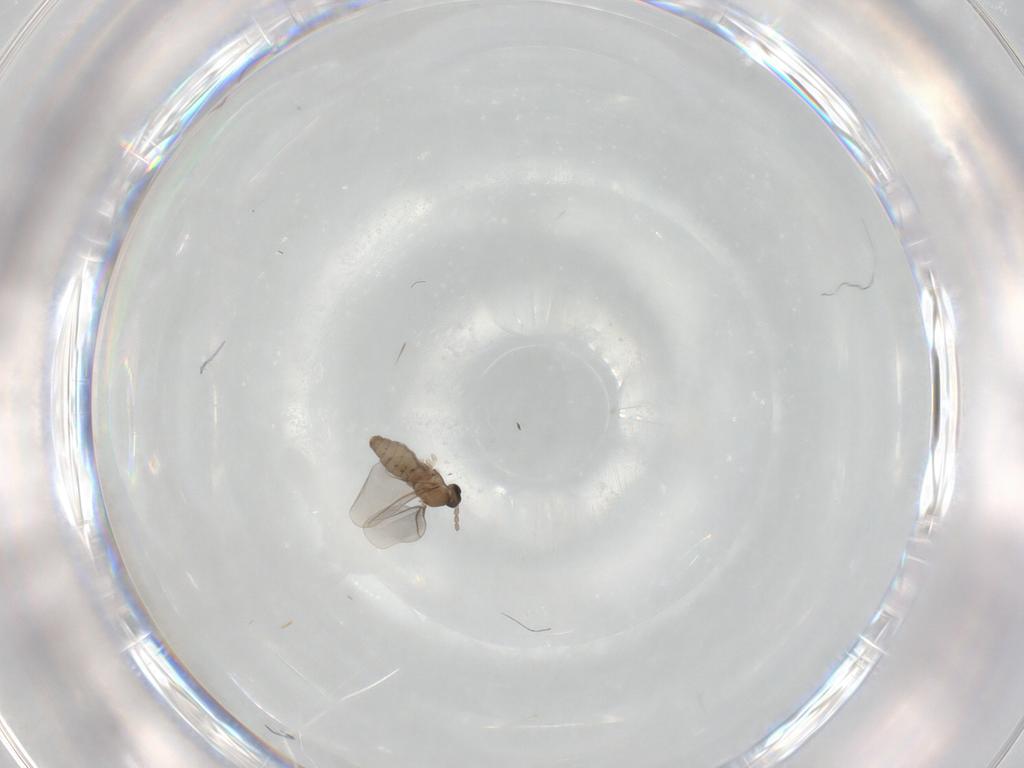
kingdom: Animalia
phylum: Arthropoda
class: Insecta
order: Diptera
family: Cecidomyiidae
